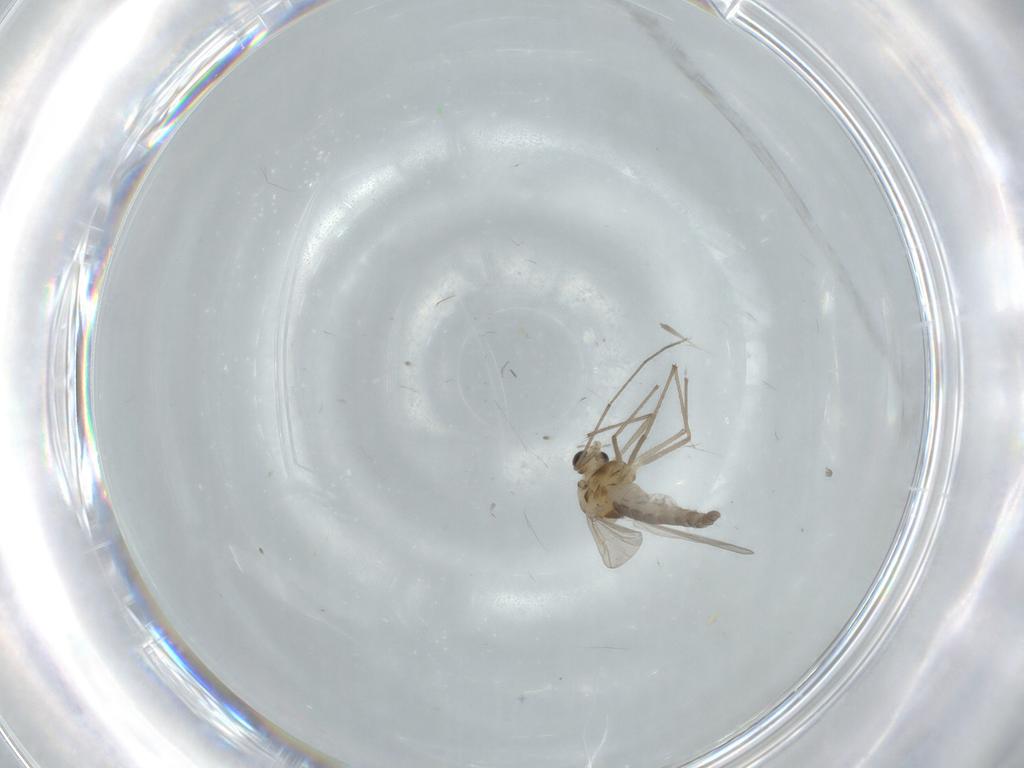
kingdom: Animalia
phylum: Arthropoda
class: Insecta
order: Diptera
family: Chironomidae
